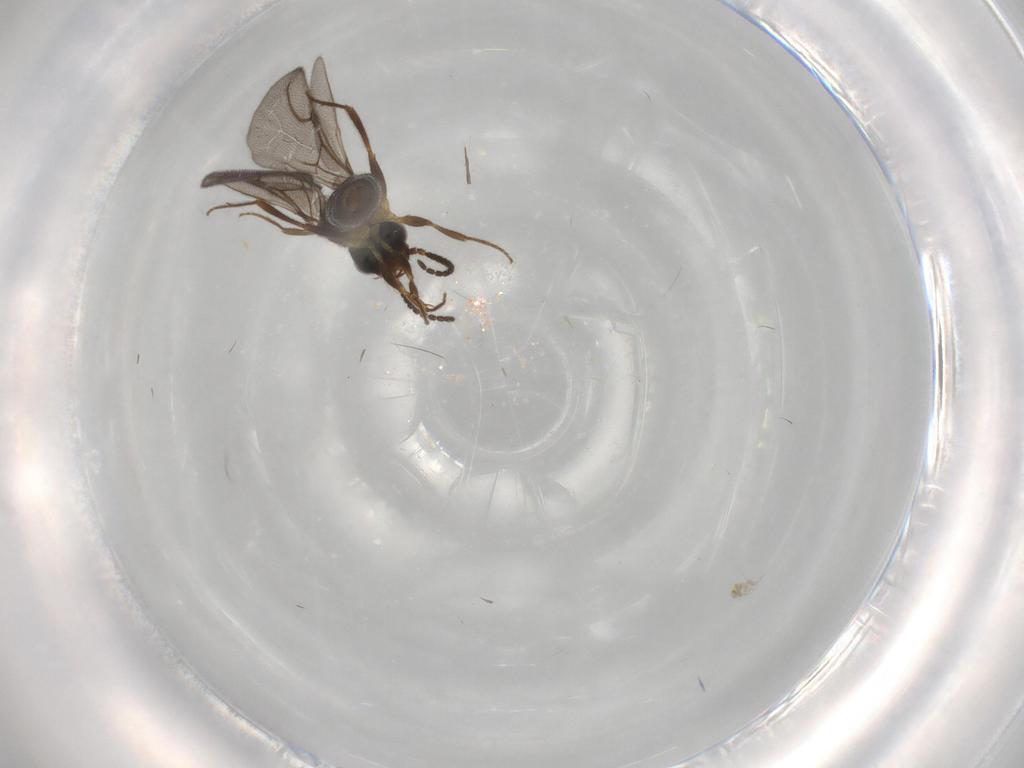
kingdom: Animalia
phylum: Arthropoda
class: Insecta
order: Hymenoptera
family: Bethylidae
